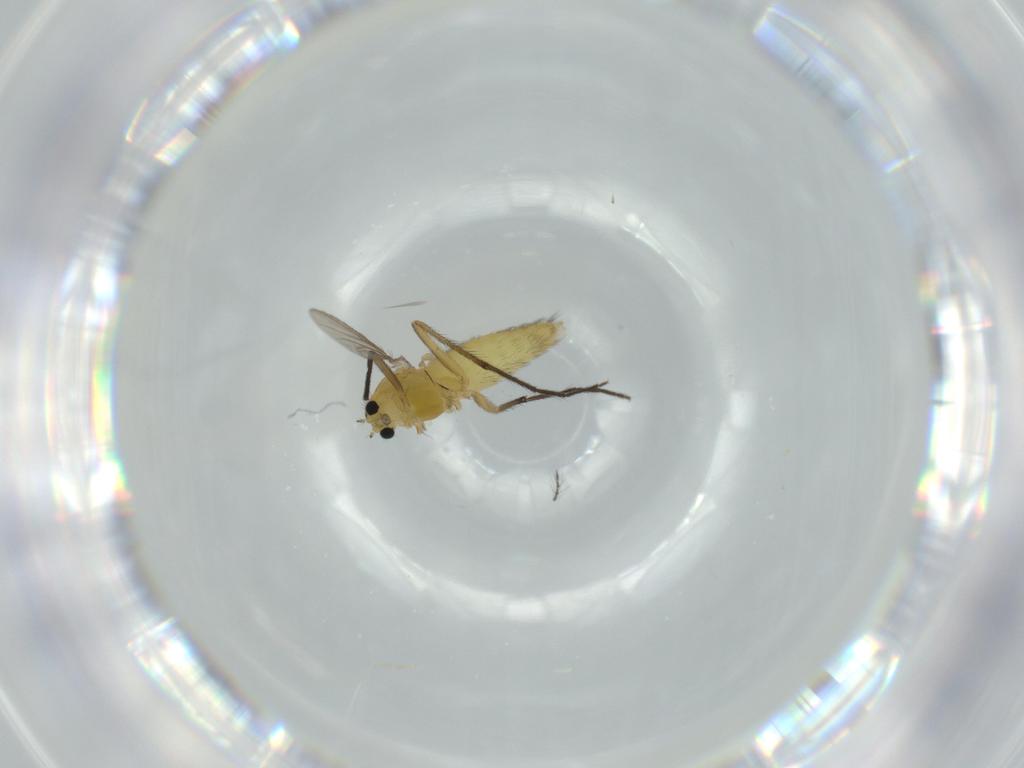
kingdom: Animalia
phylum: Arthropoda
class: Insecta
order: Diptera
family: Chironomidae
